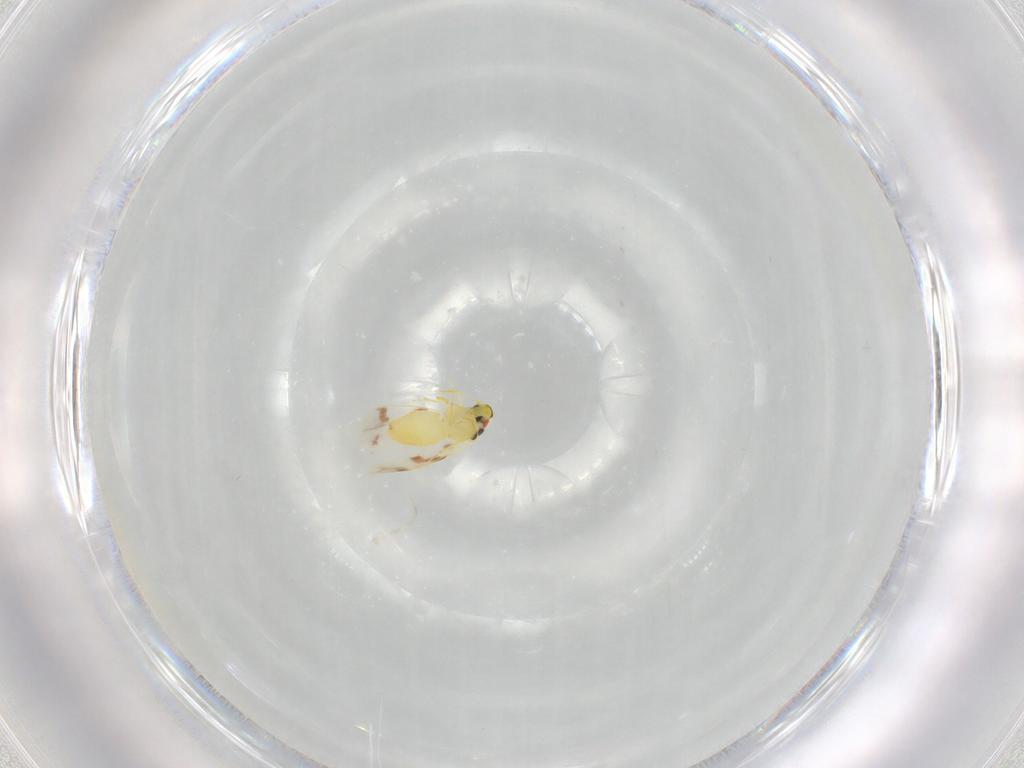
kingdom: Animalia
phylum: Arthropoda
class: Insecta
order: Hemiptera
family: Aleyrodidae
